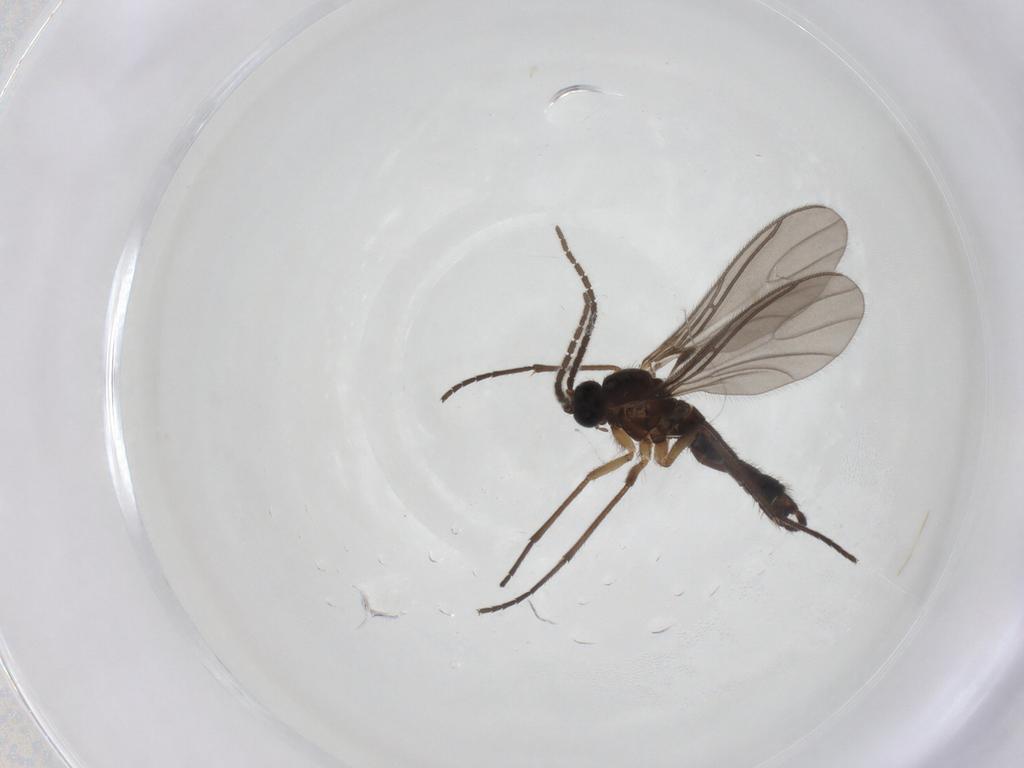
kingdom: Animalia
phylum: Arthropoda
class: Insecta
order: Diptera
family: Sciaridae
